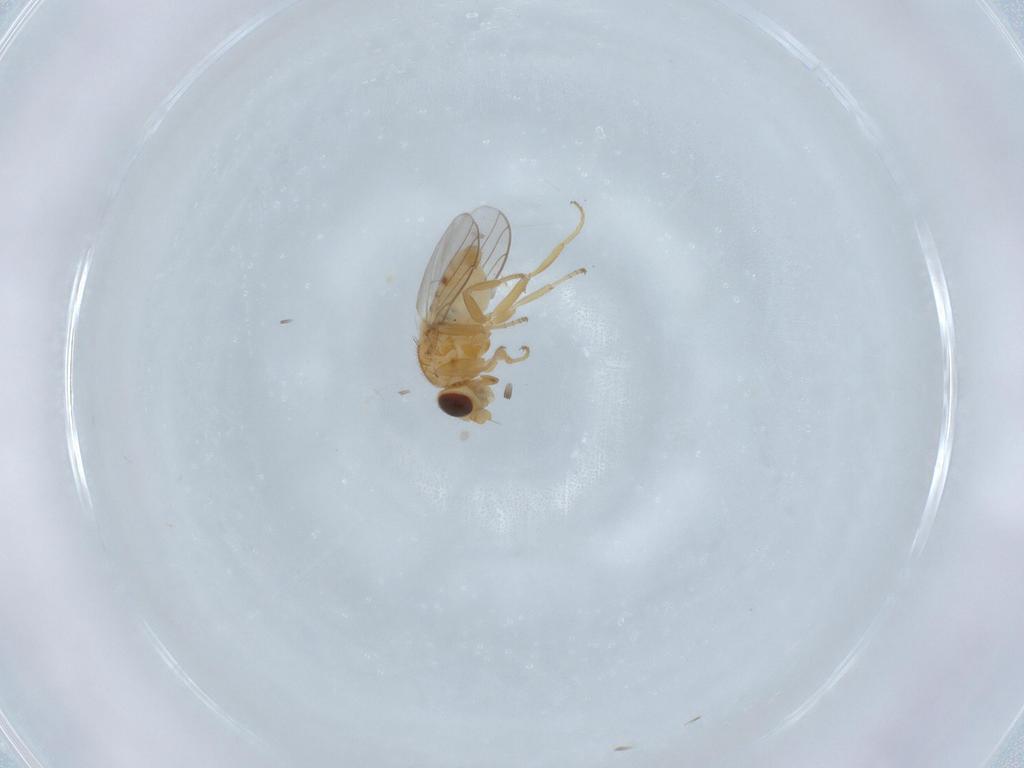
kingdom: Animalia
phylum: Arthropoda
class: Insecta
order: Diptera
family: Chloropidae
